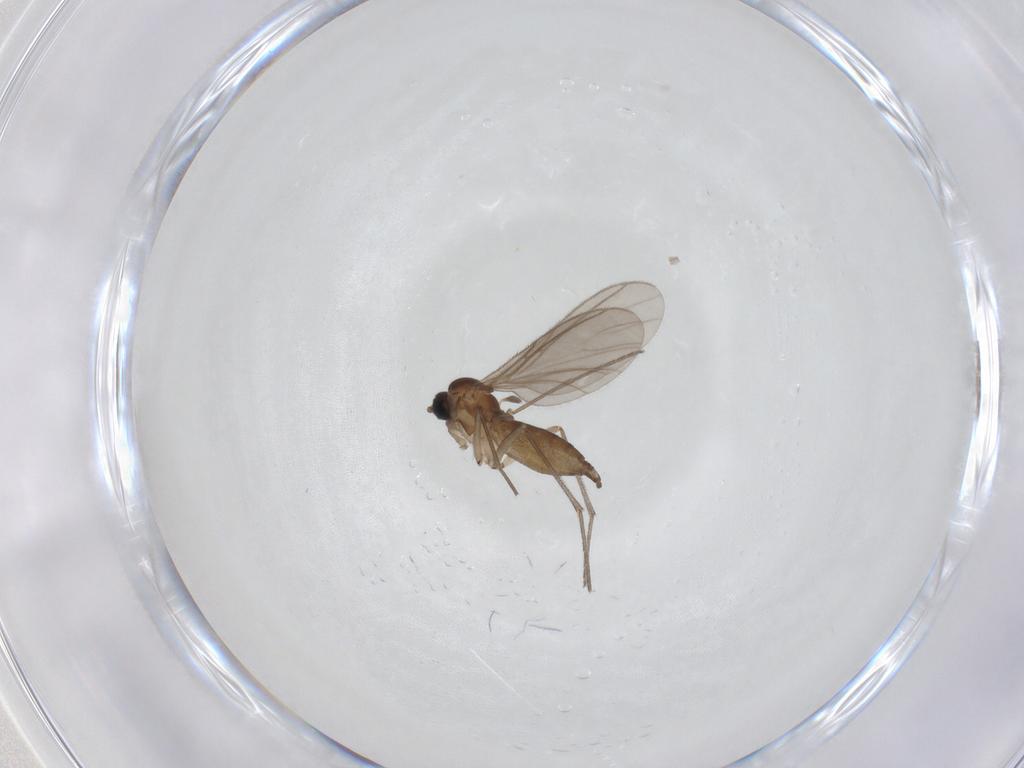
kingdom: Animalia
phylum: Arthropoda
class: Insecta
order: Diptera
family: Sciaridae
